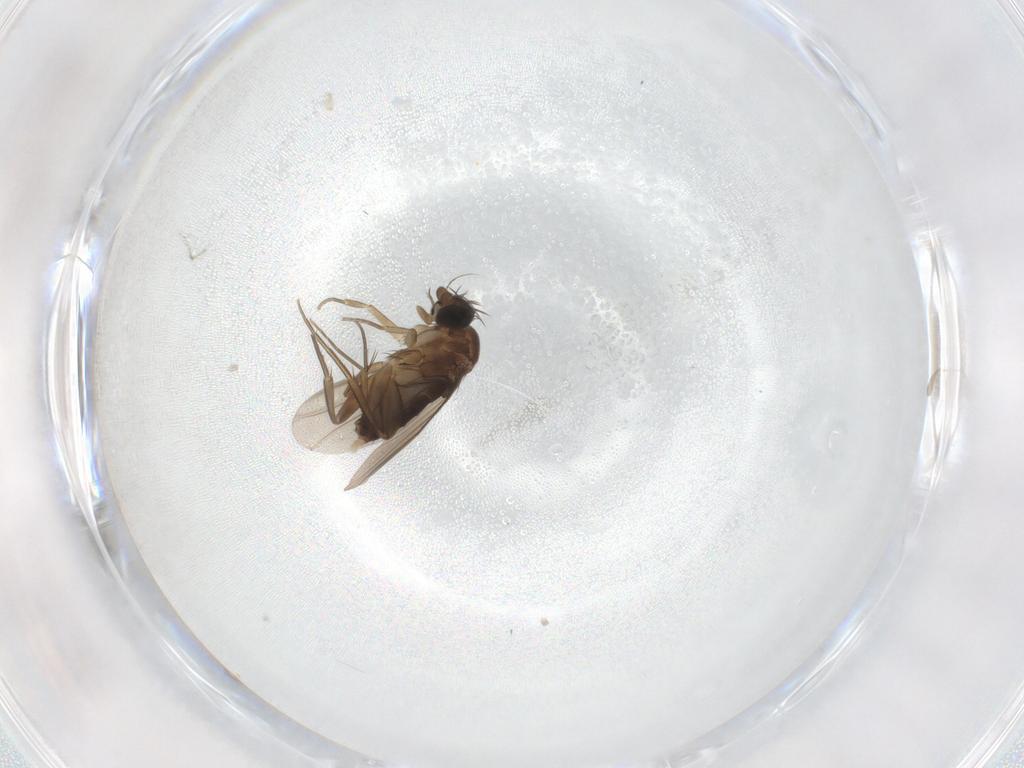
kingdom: Animalia
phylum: Arthropoda
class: Insecta
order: Diptera
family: Phoridae
